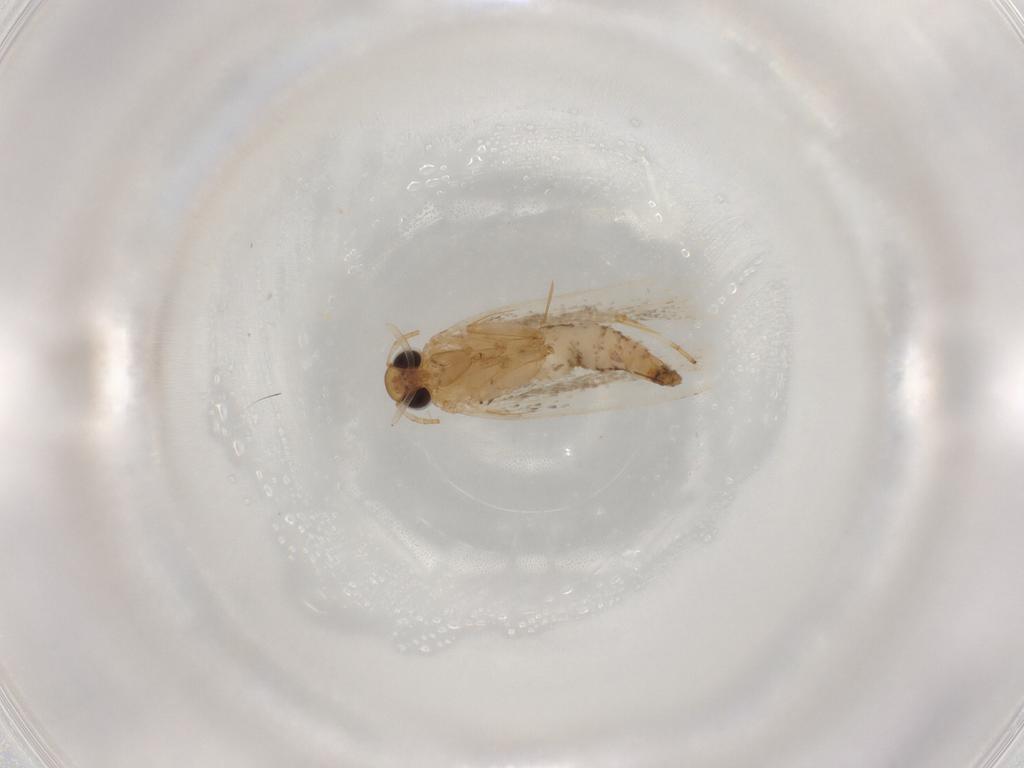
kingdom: Animalia
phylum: Arthropoda
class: Insecta
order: Lepidoptera
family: Gelechiidae
